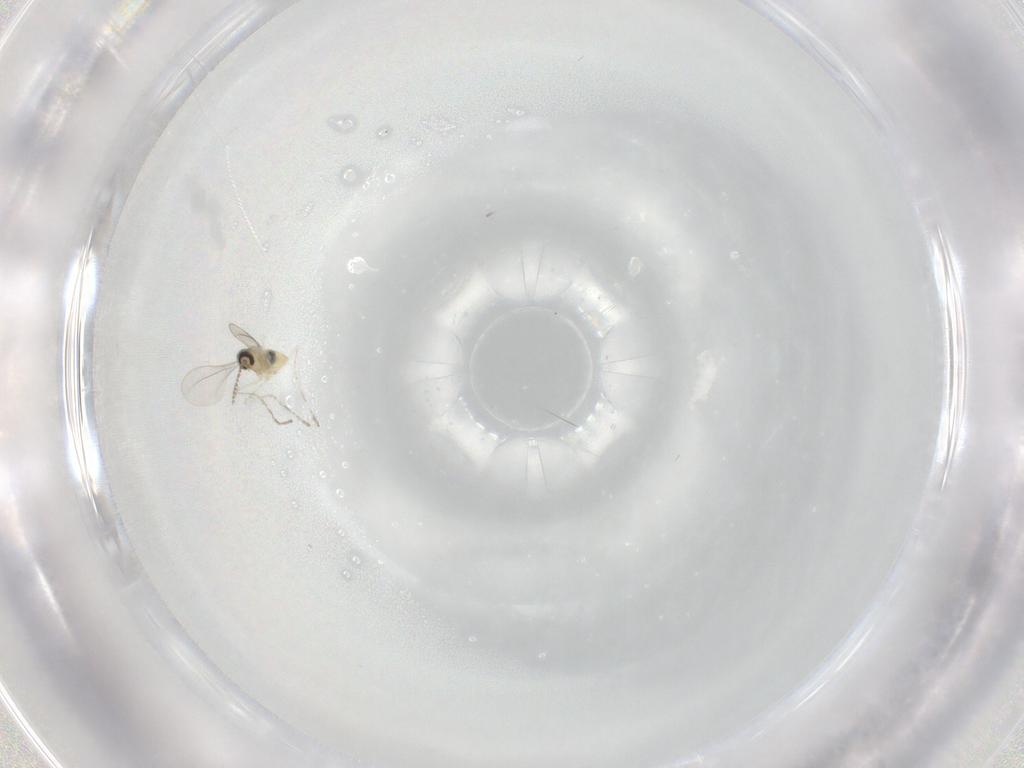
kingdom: Animalia
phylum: Arthropoda
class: Insecta
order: Diptera
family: Cecidomyiidae
